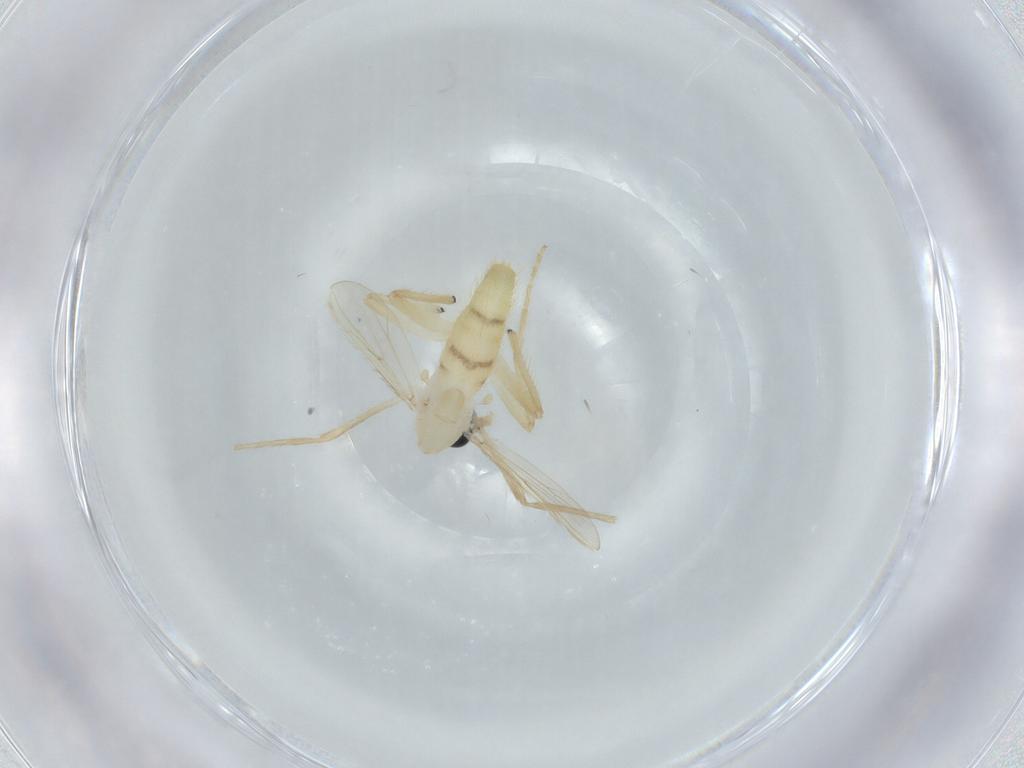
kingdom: Animalia
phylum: Arthropoda
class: Insecta
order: Diptera
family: Chironomidae
